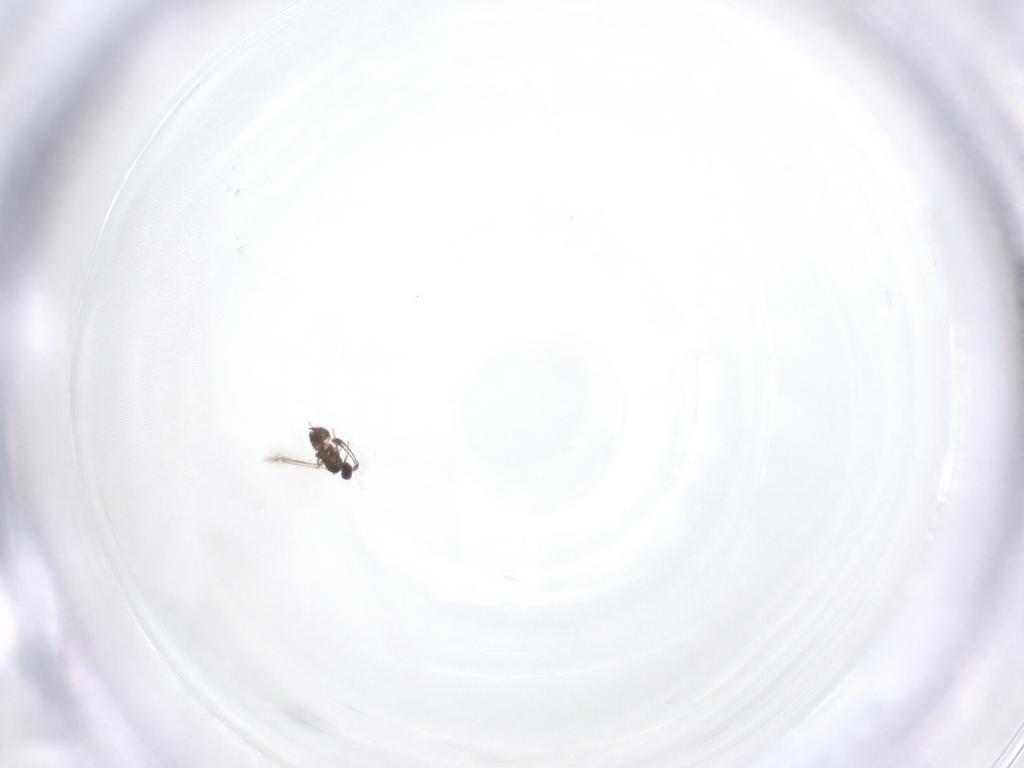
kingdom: Animalia
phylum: Arthropoda
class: Insecta
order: Hymenoptera
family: Mymaridae
